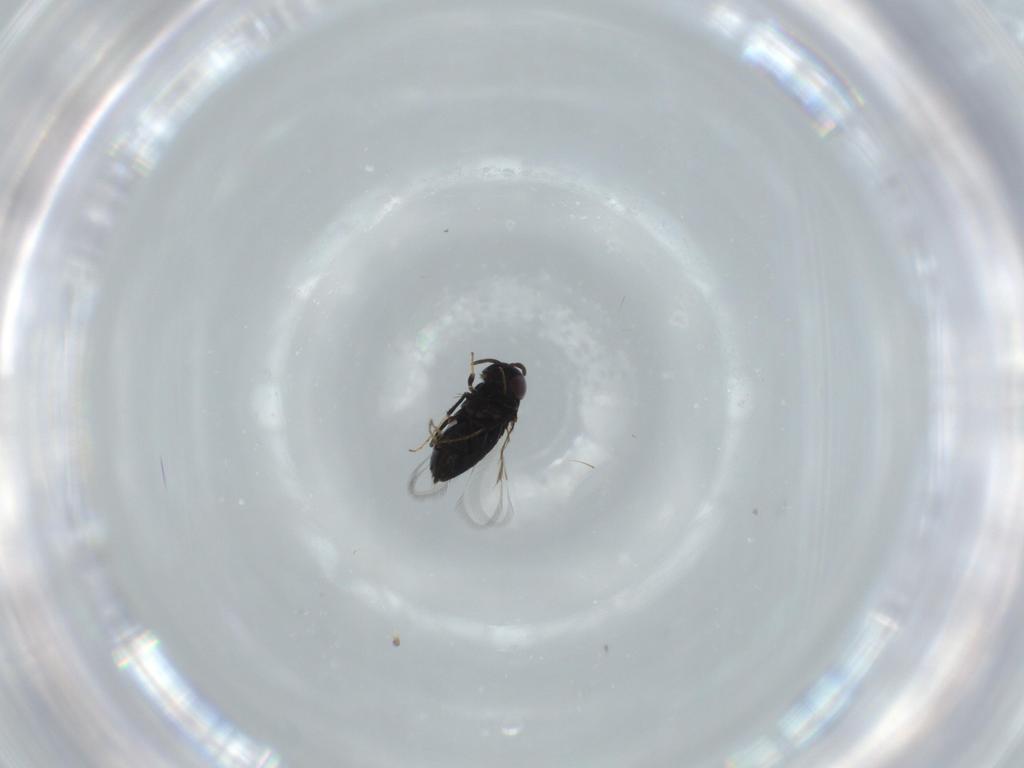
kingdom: Animalia
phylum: Arthropoda
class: Insecta
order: Hymenoptera
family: Signiphoridae
